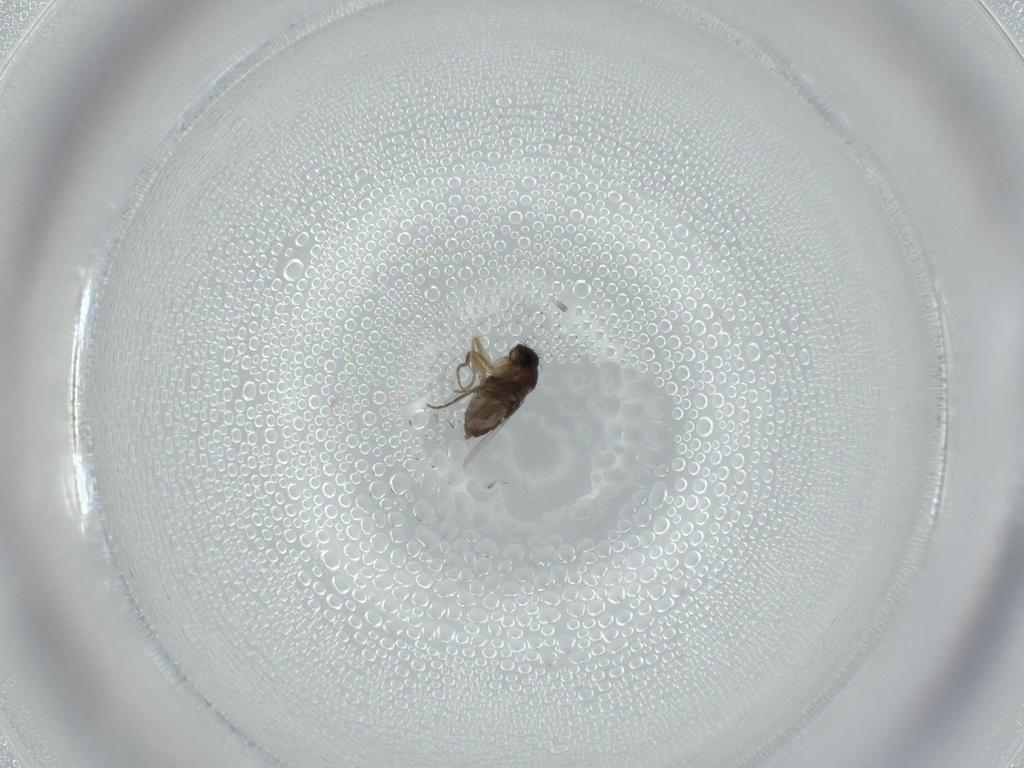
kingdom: Animalia
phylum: Arthropoda
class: Insecta
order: Diptera
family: Phoridae
